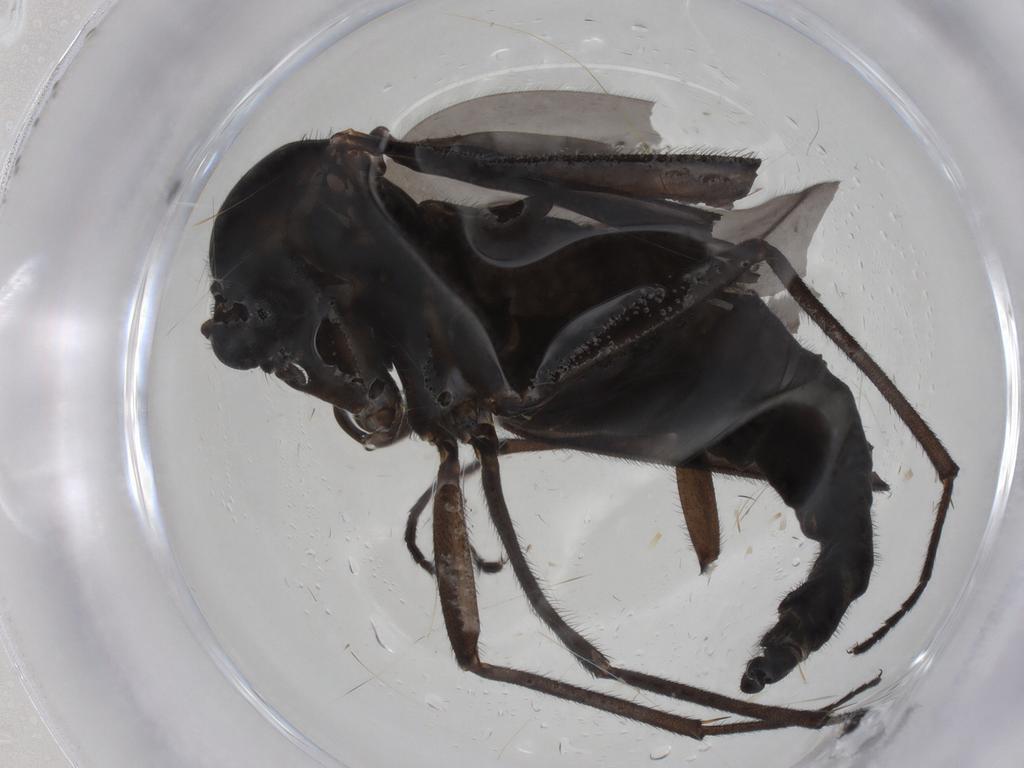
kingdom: Animalia
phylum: Arthropoda
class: Insecta
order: Diptera
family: Sciaridae
